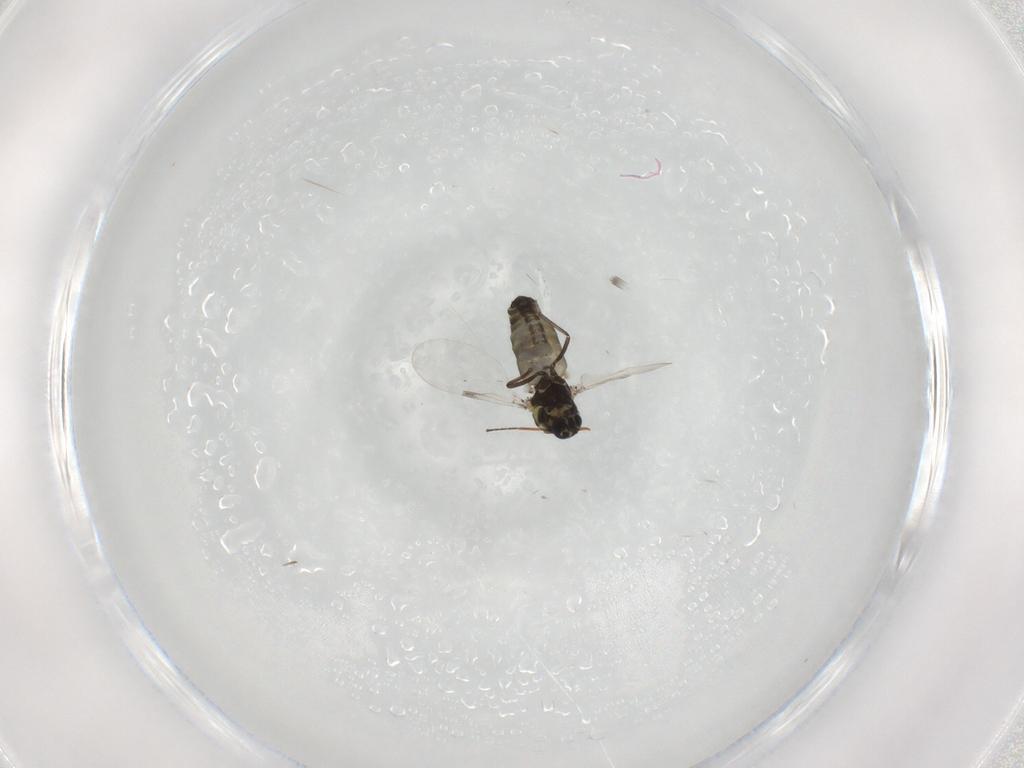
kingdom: Animalia
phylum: Arthropoda
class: Insecta
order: Diptera
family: Ceratopogonidae
